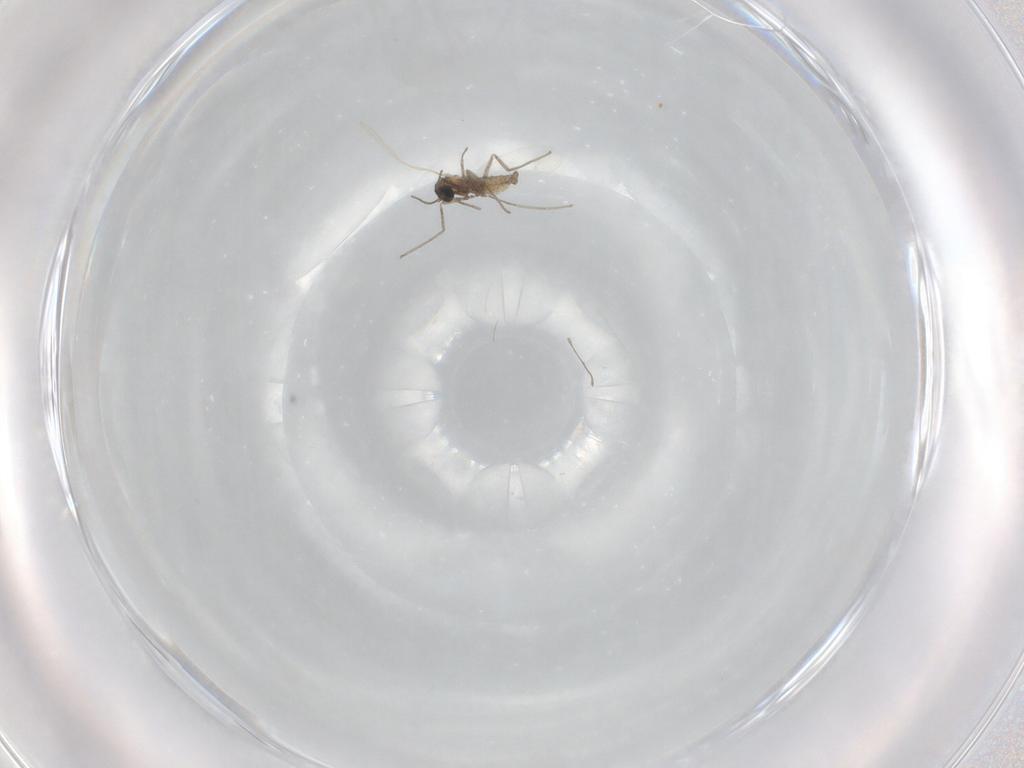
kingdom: Animalia
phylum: Arthropoda
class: Insecta
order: Diptera
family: Cecidomyiidae
